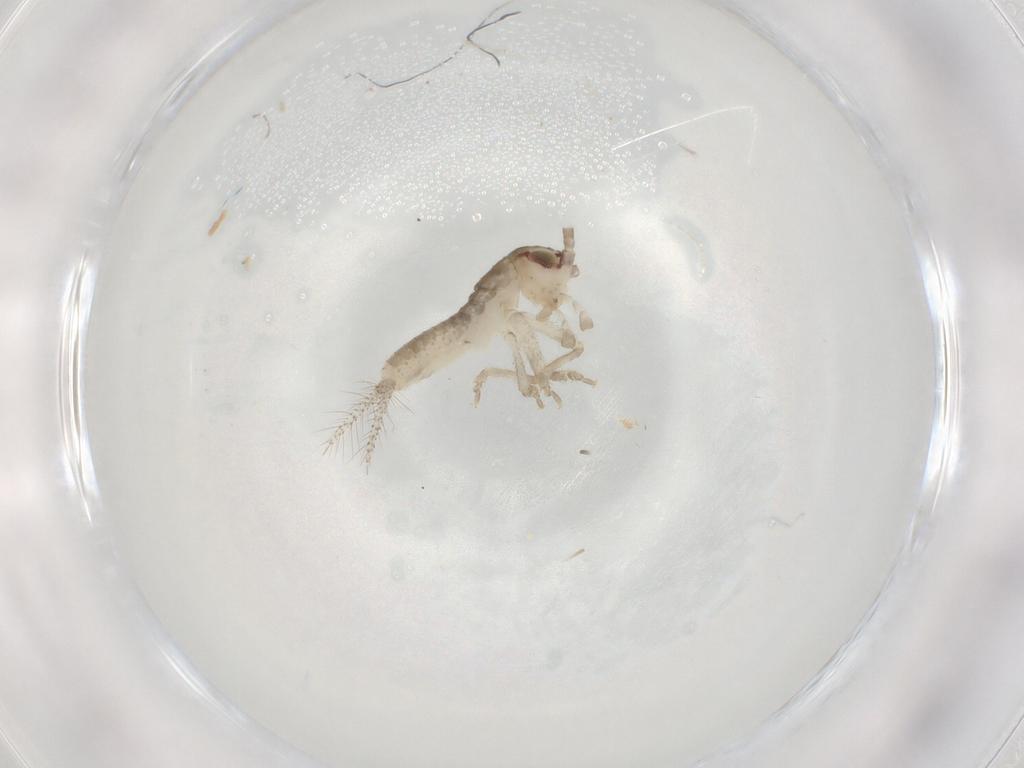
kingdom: Animalia
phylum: Arthropoda
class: Insecta
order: Orthoptera
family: Gryllidae
